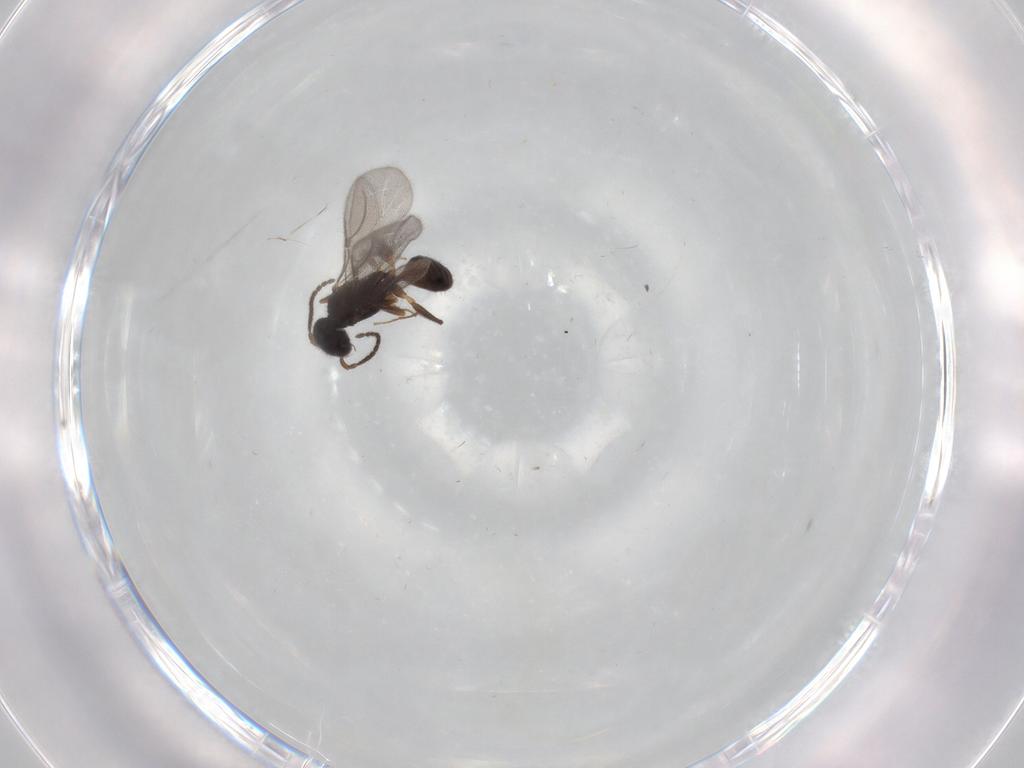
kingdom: Animalia
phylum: Arthropoda
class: Insecta
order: Hymenoptera
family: Bethylidae
